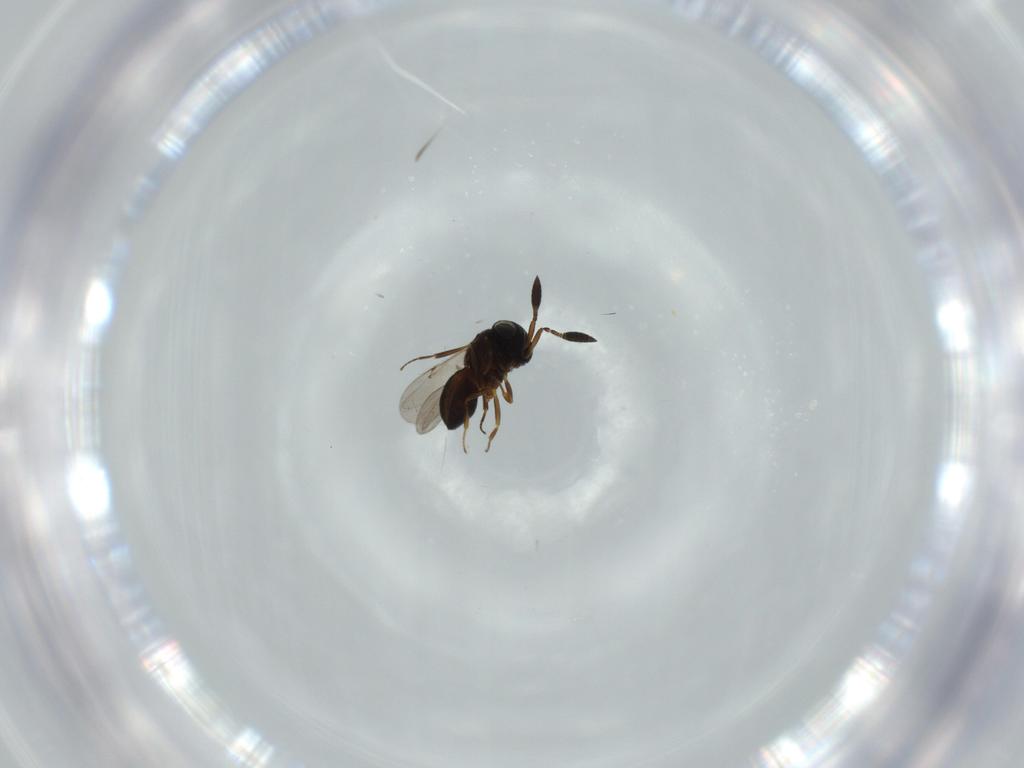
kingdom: Animalia
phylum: Arthropoda
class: Insecta
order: Hymenoptera
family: Scelionidae
